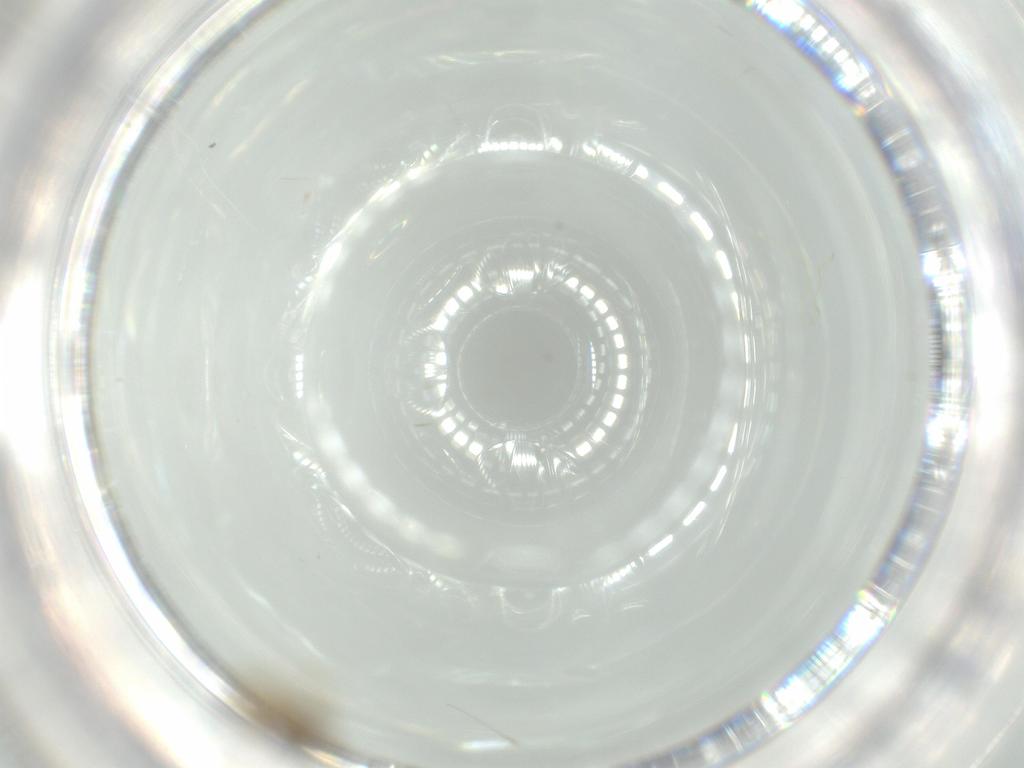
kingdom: Animalia
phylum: Arthropoda
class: Insecta
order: Hymenoptera
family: Torymidae
